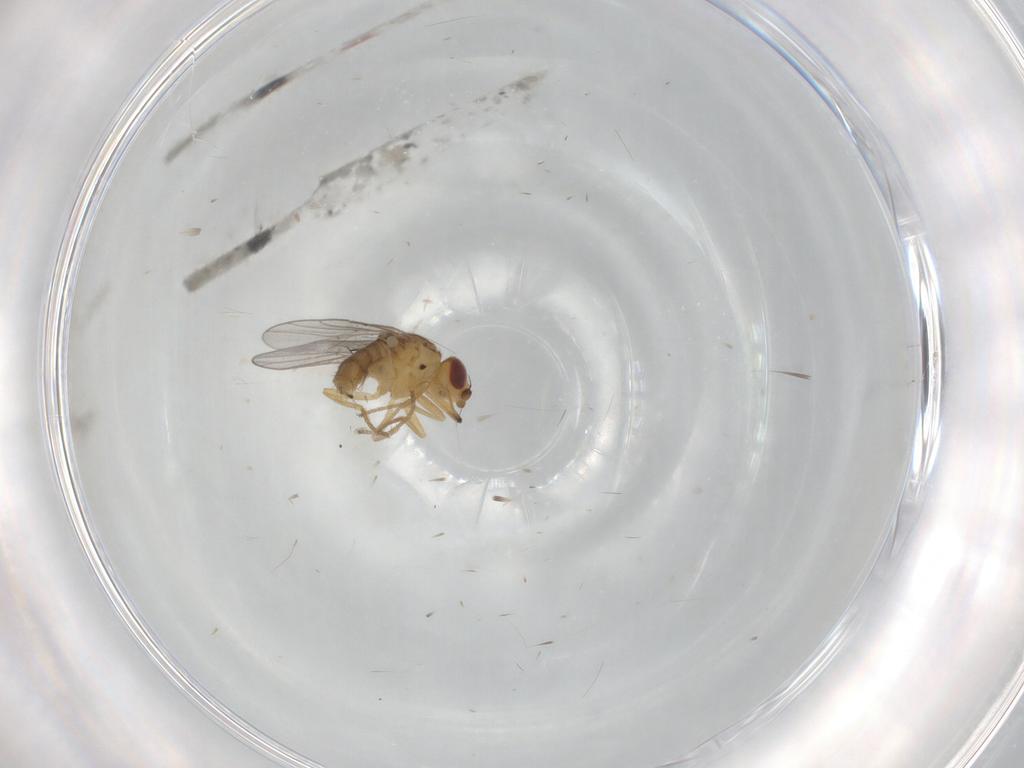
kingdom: Animalia
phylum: Arthropoda
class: Insecta
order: Diptera
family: Chloropidae
